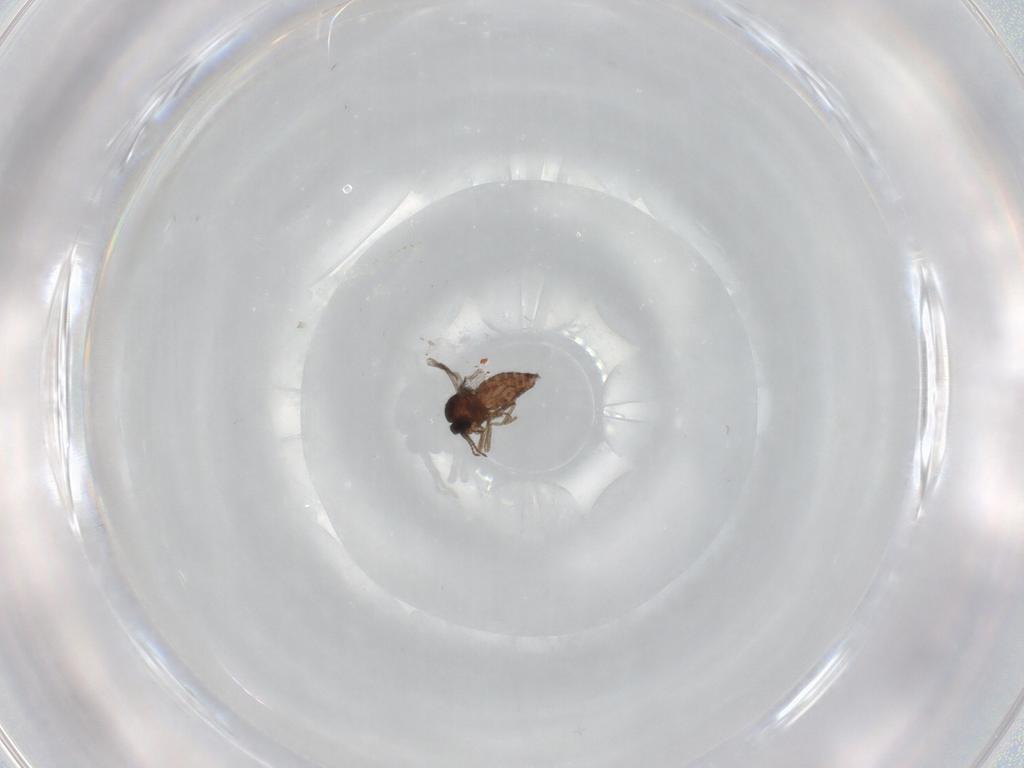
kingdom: Animalia
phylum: Arthropoda
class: Insecta
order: Diptera
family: Ceratopogonidae
